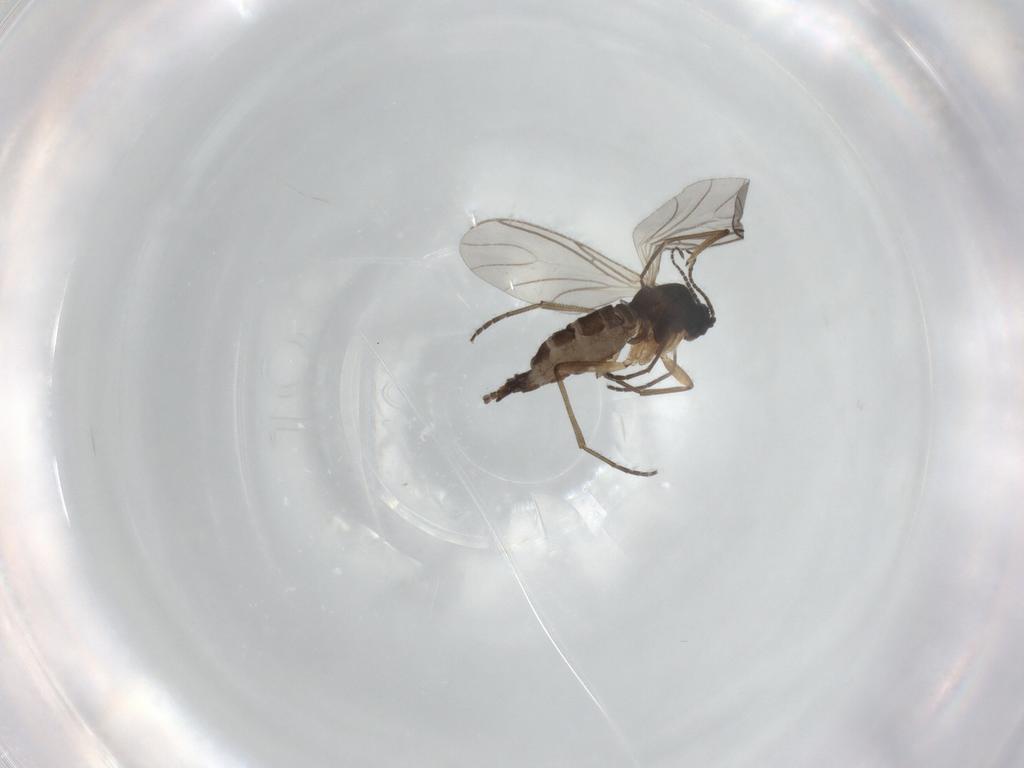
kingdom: Animalia
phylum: Arthropoda
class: Insecta
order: Diptera
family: Sciaridae
